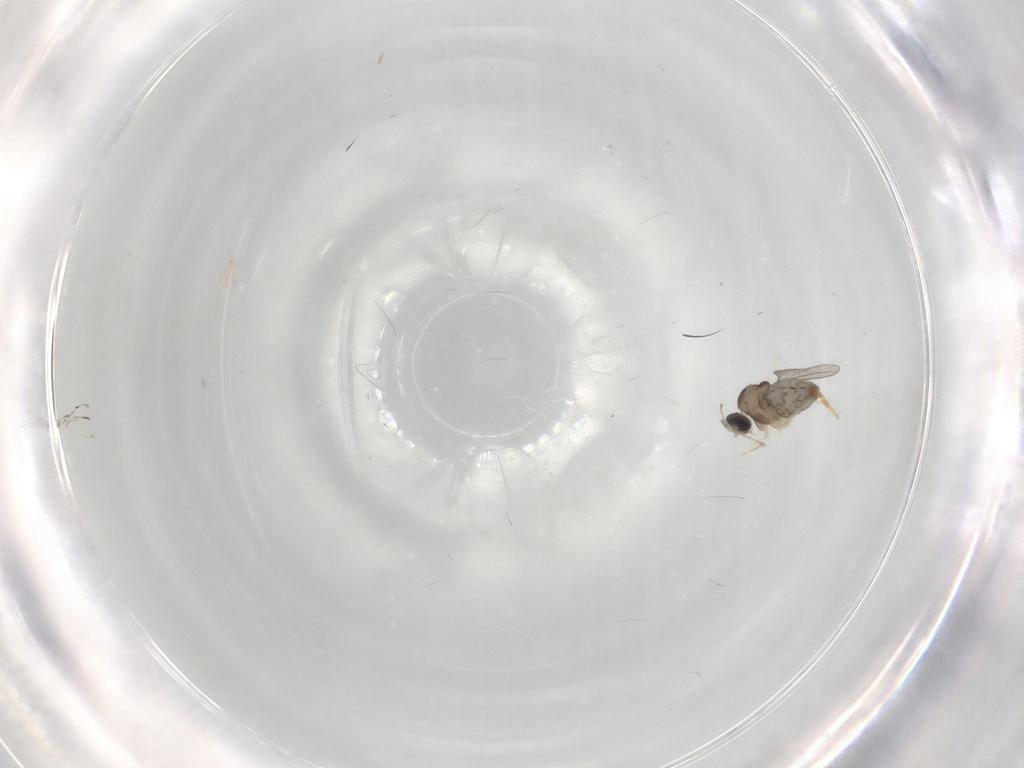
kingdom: Animalia
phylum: Arthropoda
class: Insecta
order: Diptera
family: Cecidomyiidae
